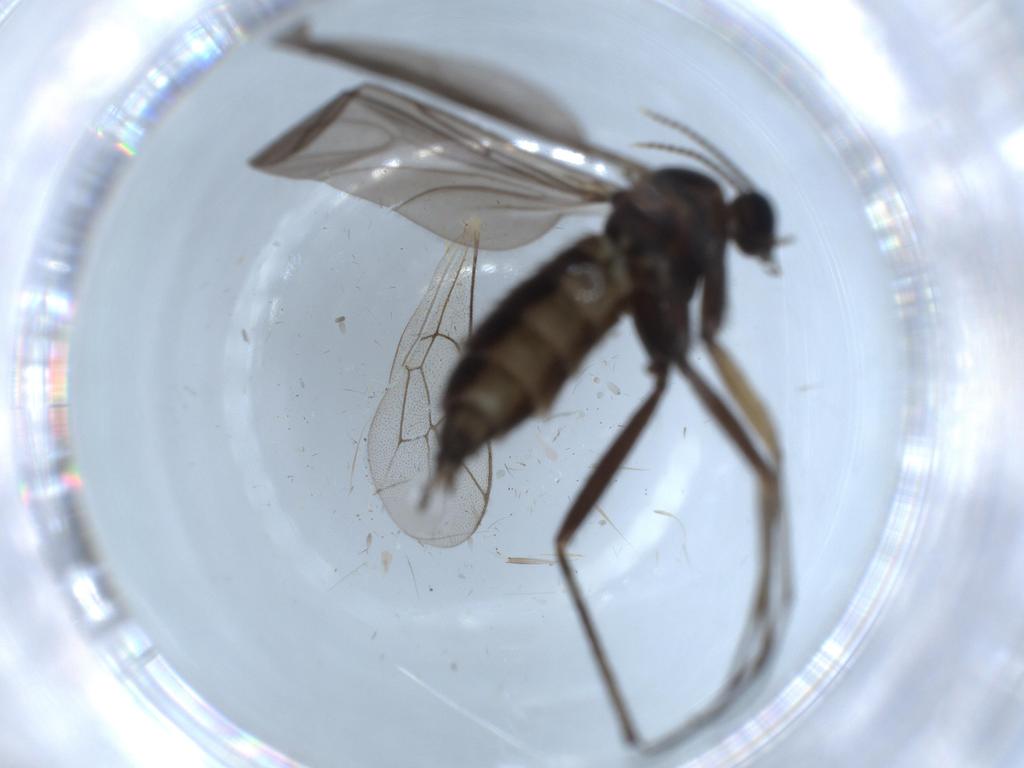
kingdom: Animalia
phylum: Arthropoda
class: Insecta
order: Diptera
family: Sciaridae
